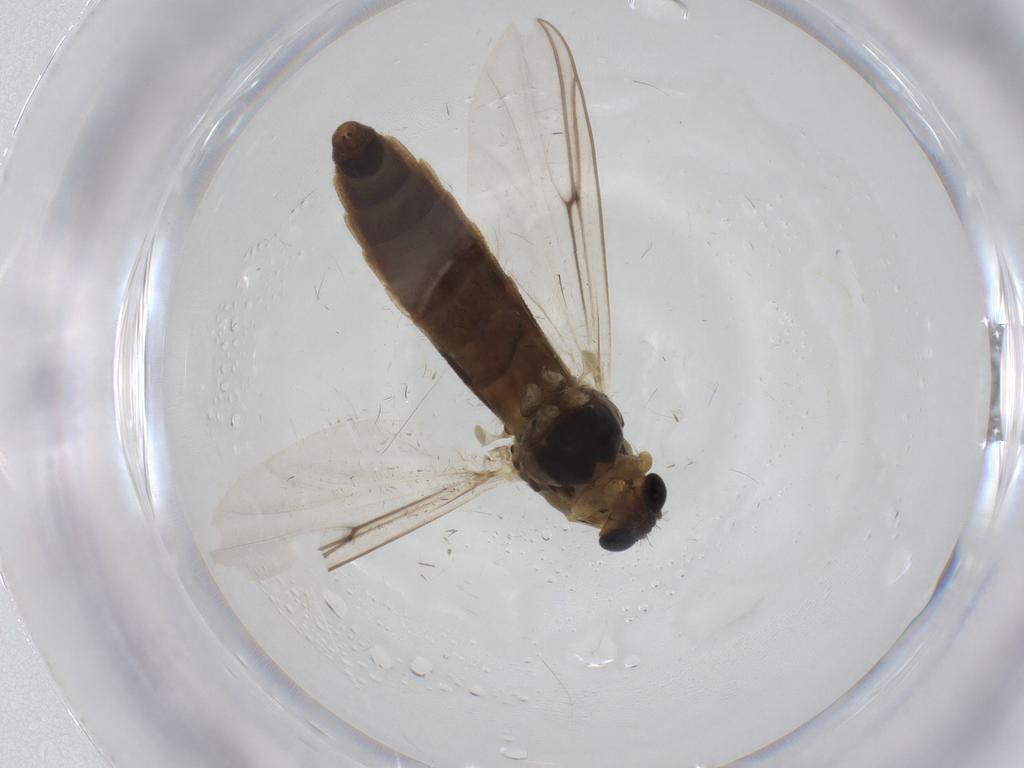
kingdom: Animalia
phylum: Arthropoda
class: Insecta
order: Diptera
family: Chironomidae
